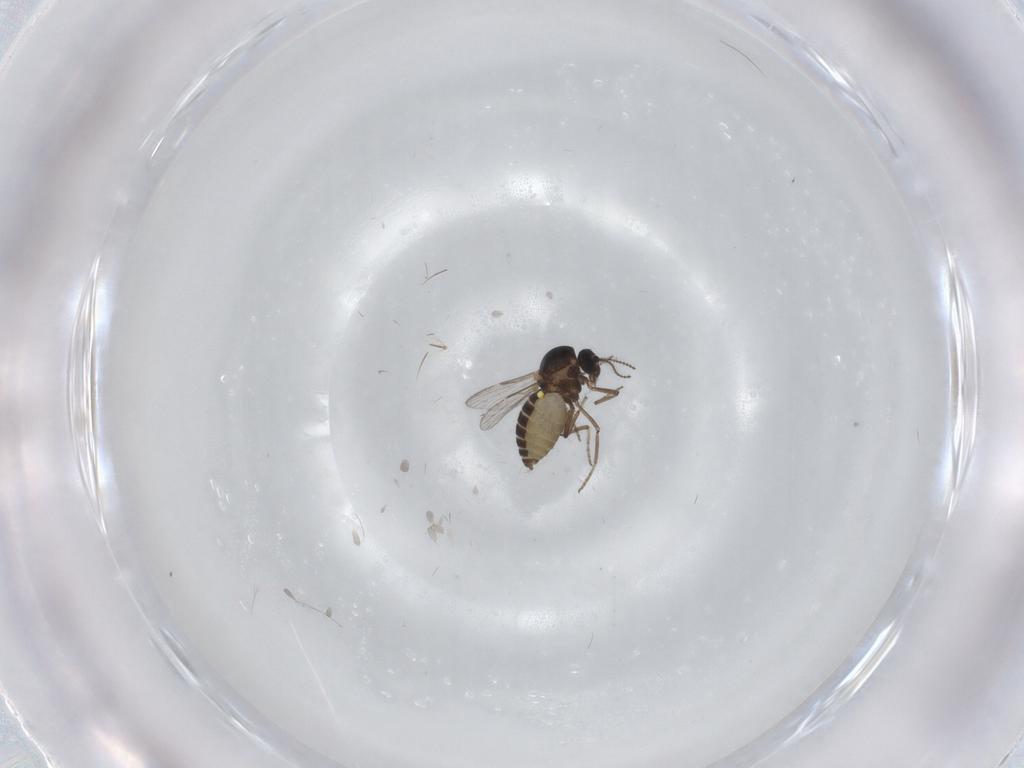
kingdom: Animalia
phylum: Arthropoda
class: Insecta
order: Diptera
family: Ceratopogonidae
